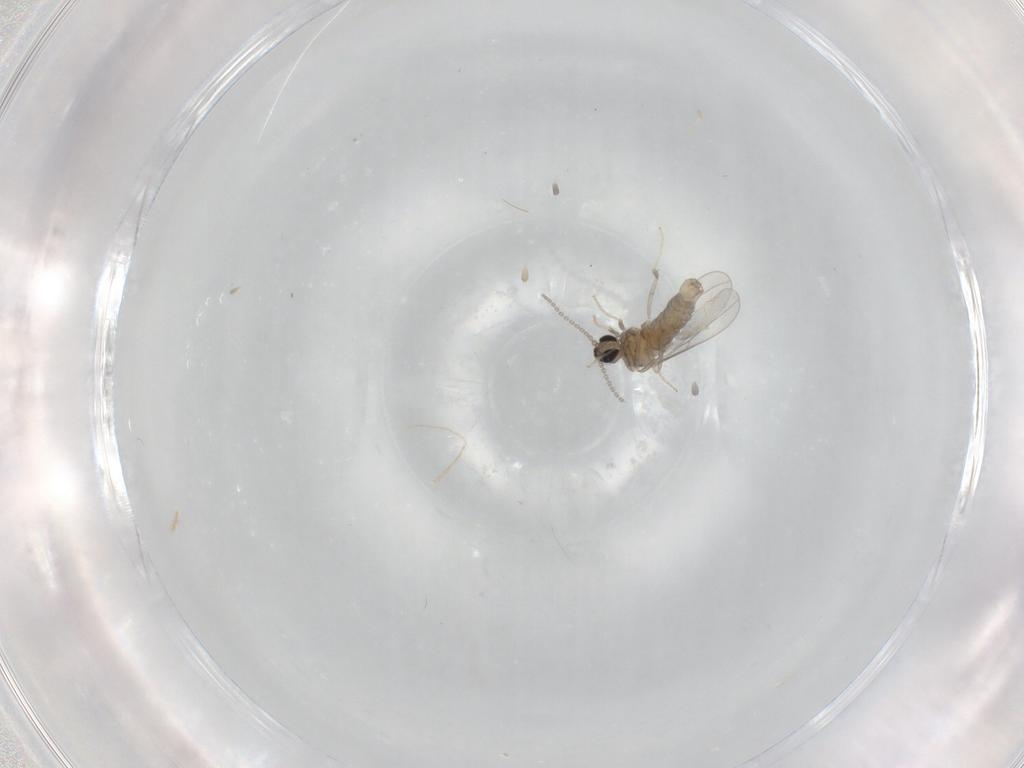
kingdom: Animalia
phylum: Arthropoda
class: Insecta
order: Diptera
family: Cecidomyiidae
